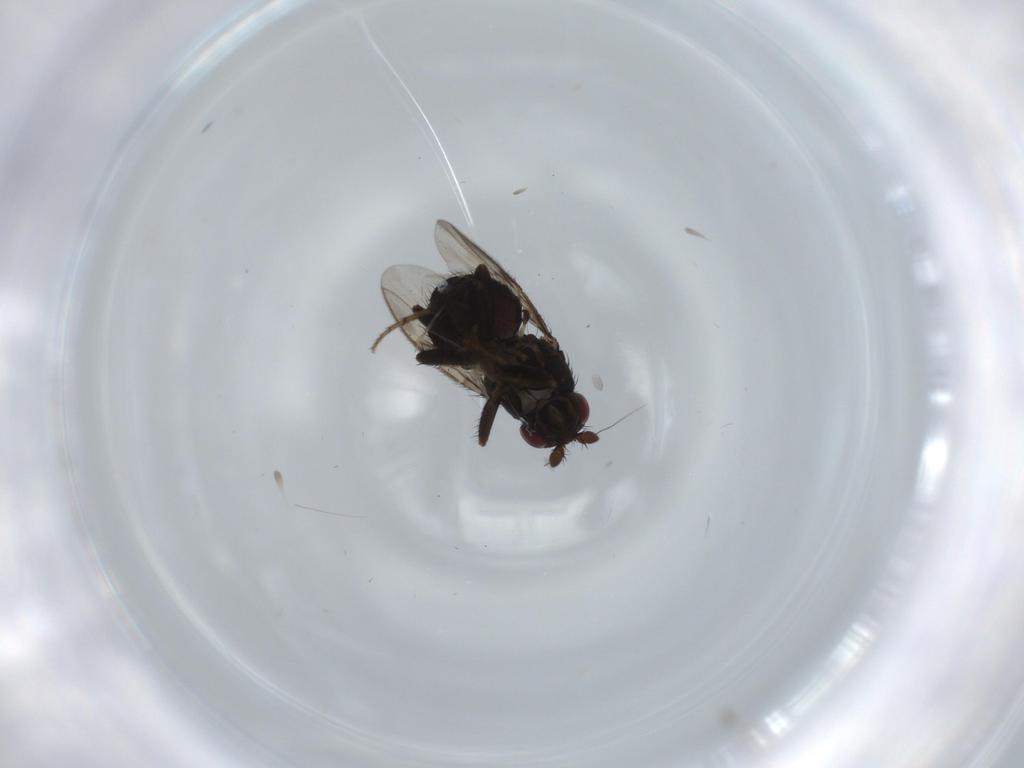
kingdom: Animalia
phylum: Arthropoda
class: Insecta
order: Diptera
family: Sphaeroceridae
